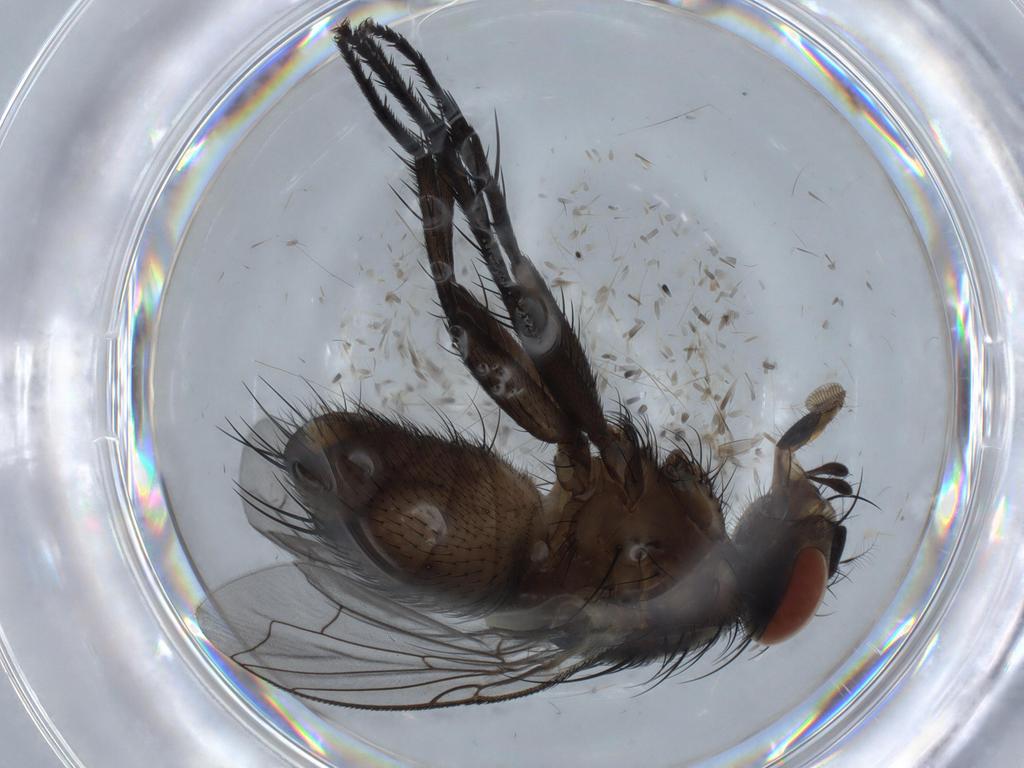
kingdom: Animalia
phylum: Arthropoda
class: Insecta
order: Diptera
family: Sarcophagidae
